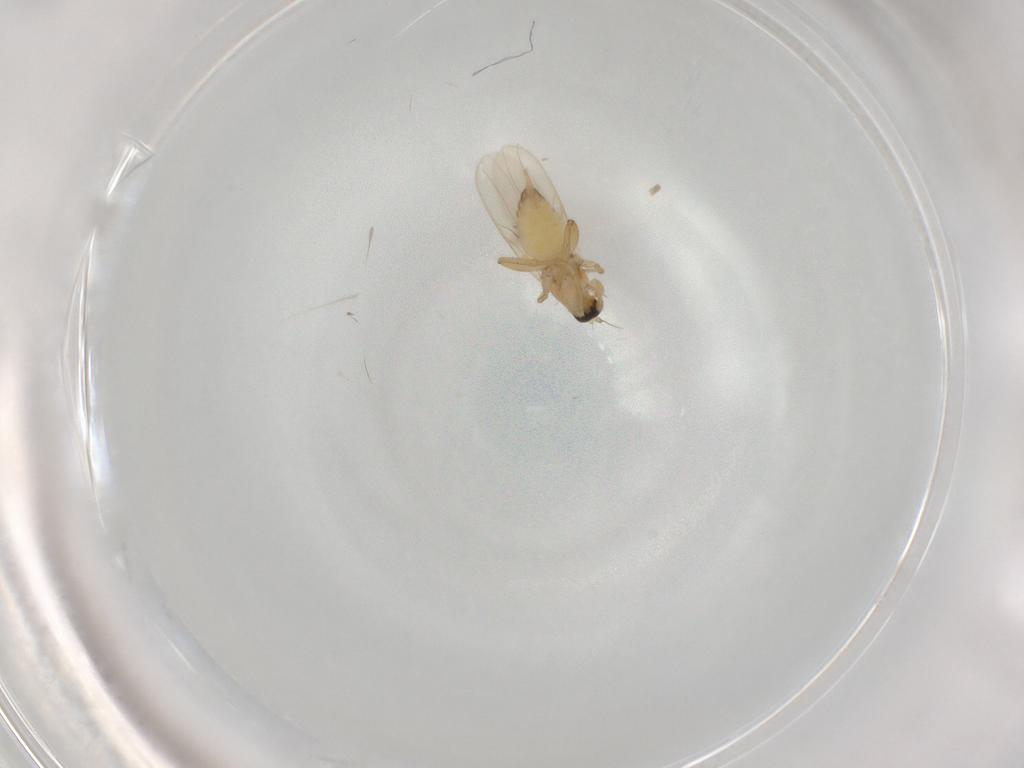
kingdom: Animalia
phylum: Arthropoda
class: Insecta
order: Diptera
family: Hybotidae
